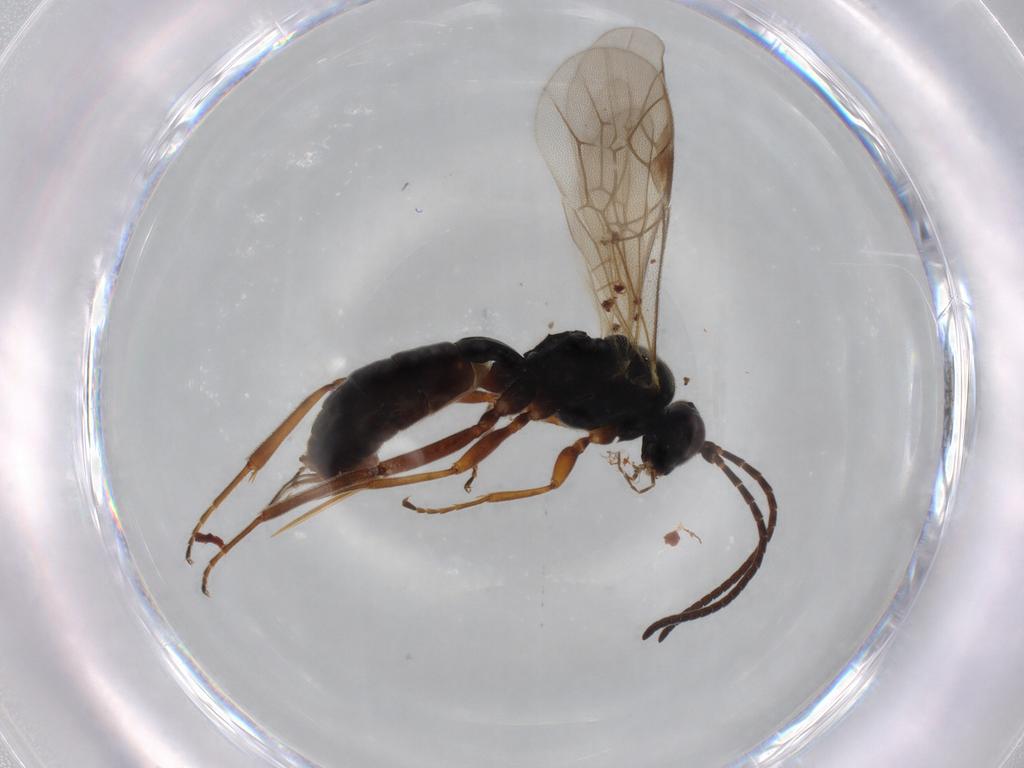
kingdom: Animalia
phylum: Arthropoda
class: Insecta
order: Hymenoptera
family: Ichneumonidae
